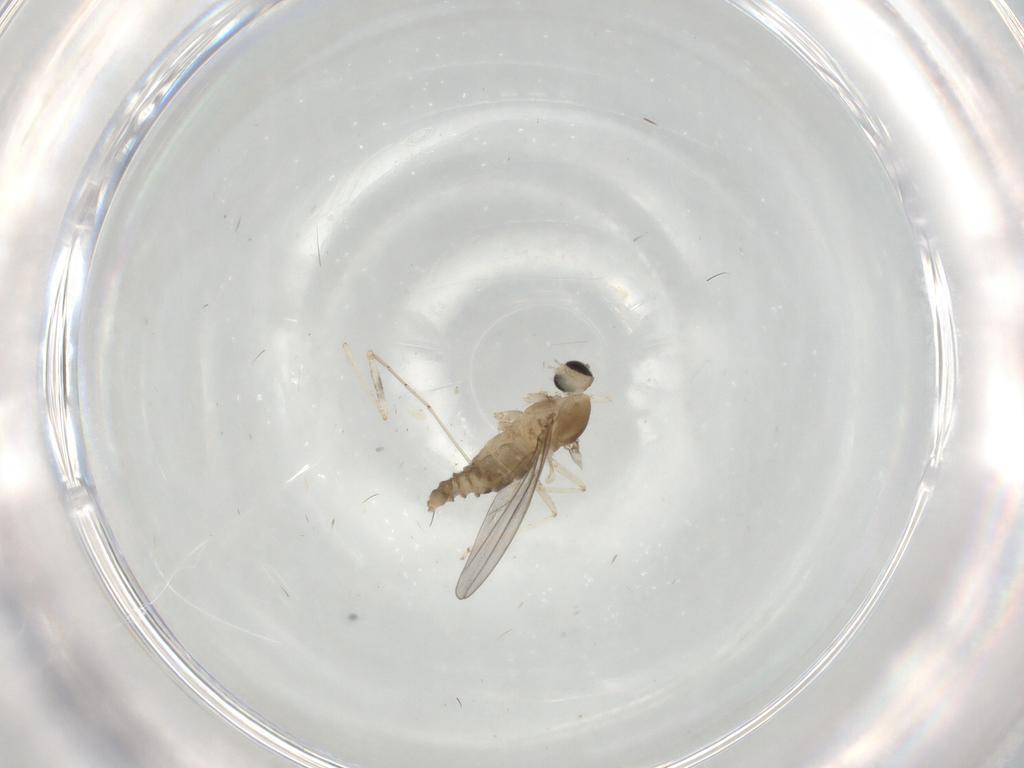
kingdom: Animalia
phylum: Arthropoda
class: Insecta
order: Diptera
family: Cecidomyiidae
